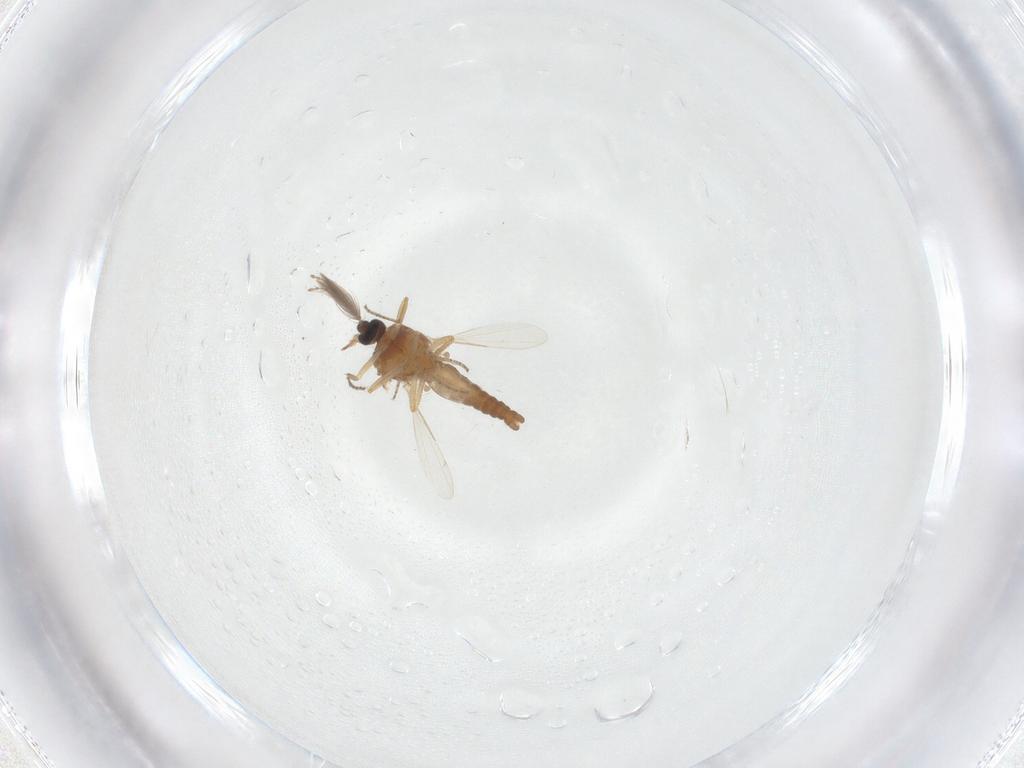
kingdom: Animalia
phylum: Arthropoda
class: Insecta
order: Diptera
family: Ceratopogonidae
